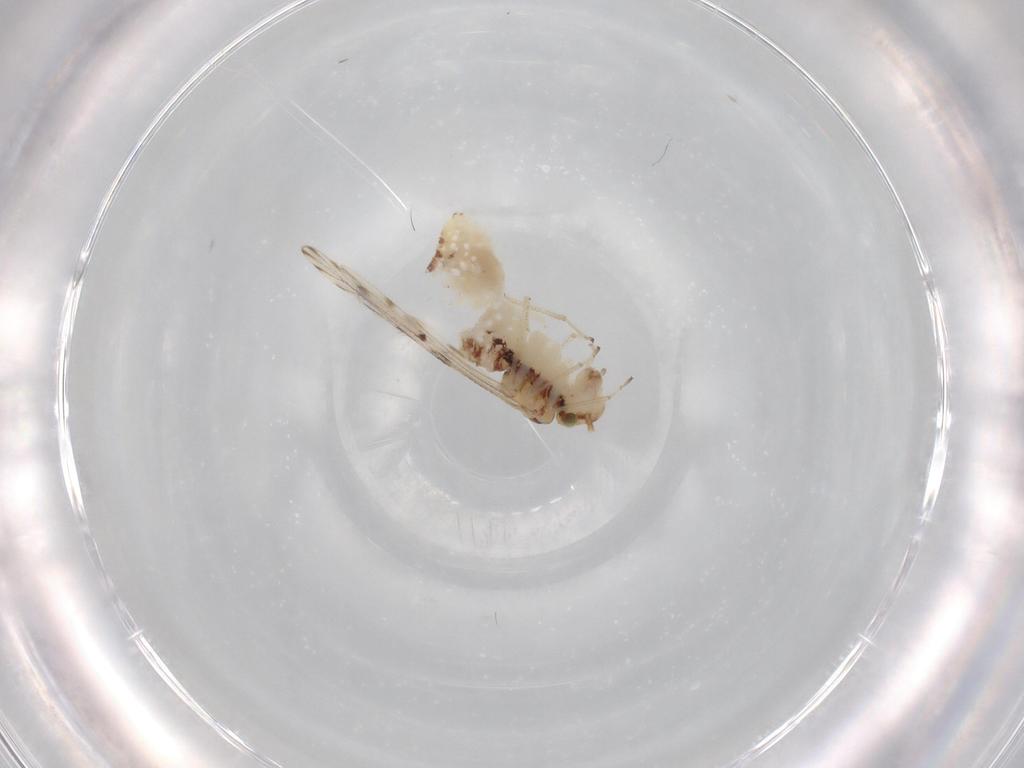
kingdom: Animalia
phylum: Arthropoda
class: Insecta
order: Psocodea
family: Ectopsocidae
